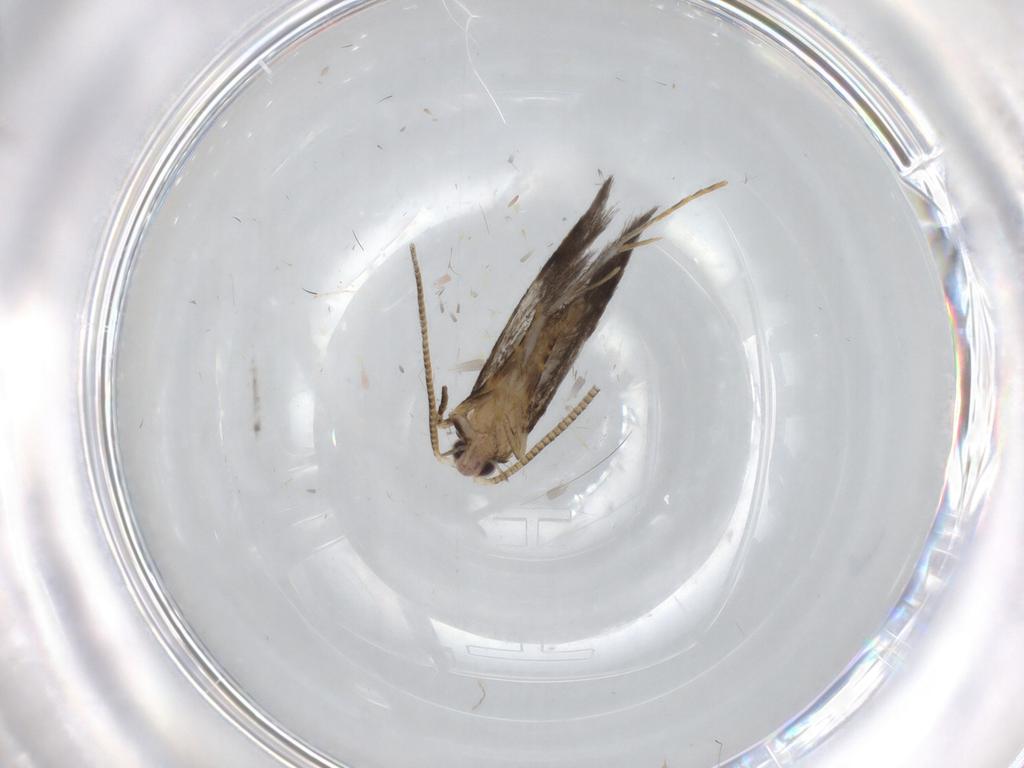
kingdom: Animalia
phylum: Arthropoda
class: Insecta
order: Lepidoptera
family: Tineidae
